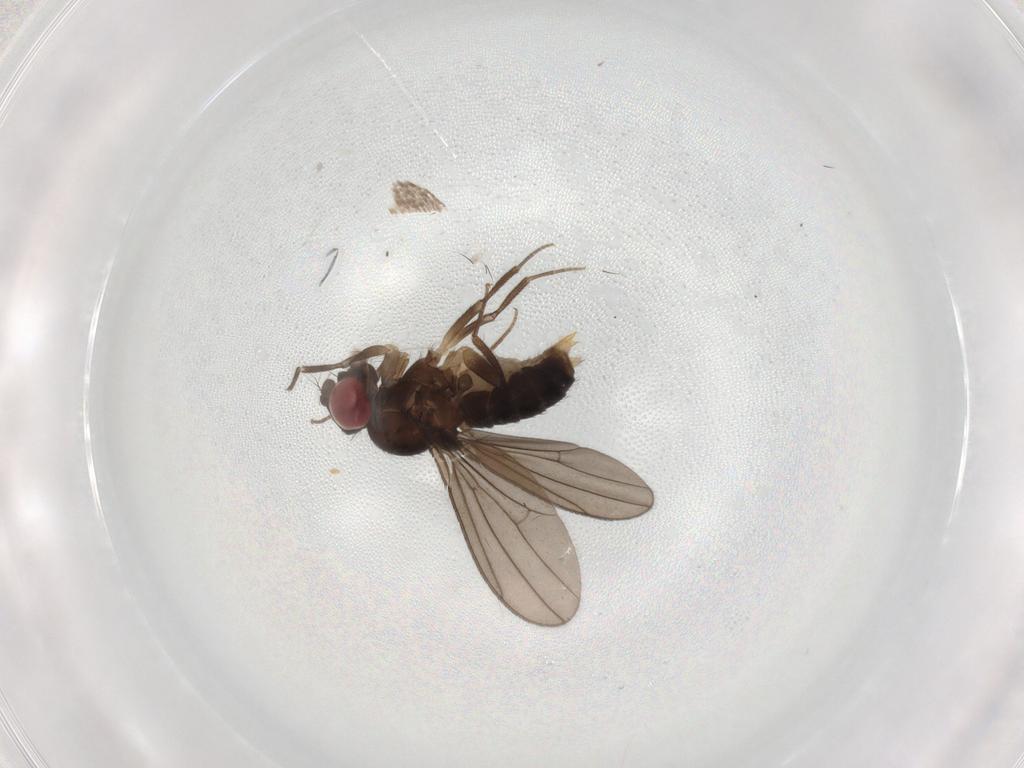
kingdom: Animalia
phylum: Arthropoda
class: Insecta
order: Diptera
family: Drosophilidae
